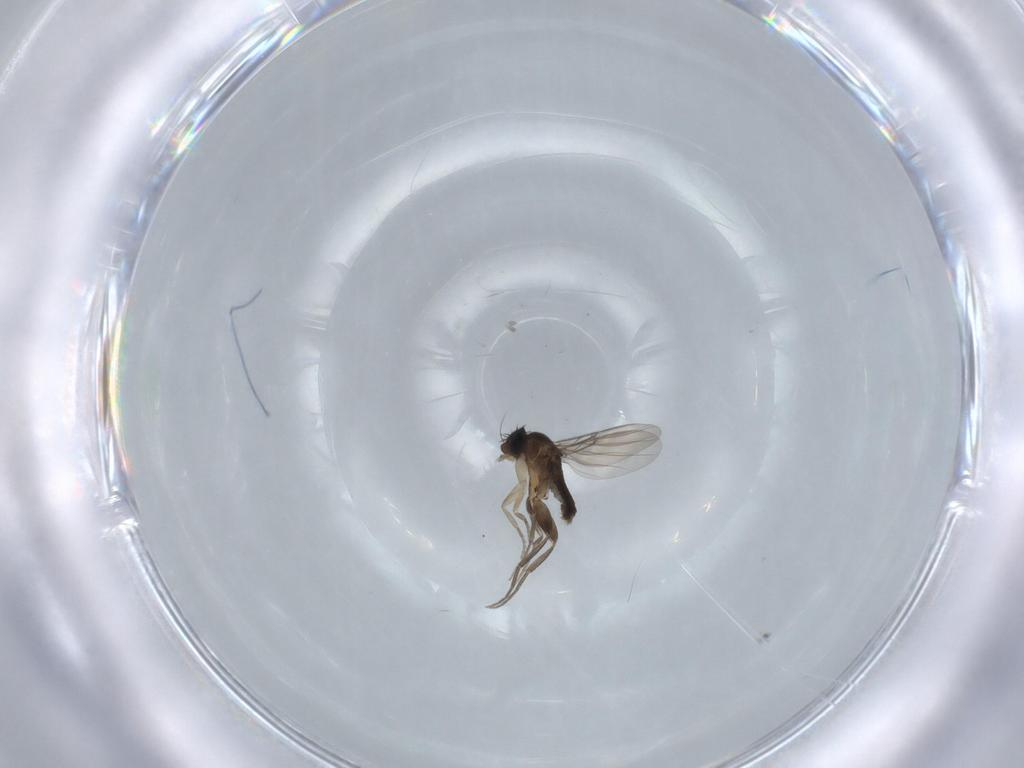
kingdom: Animalia
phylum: Arthropoda
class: Insecta
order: Diptera
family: Phoridae
